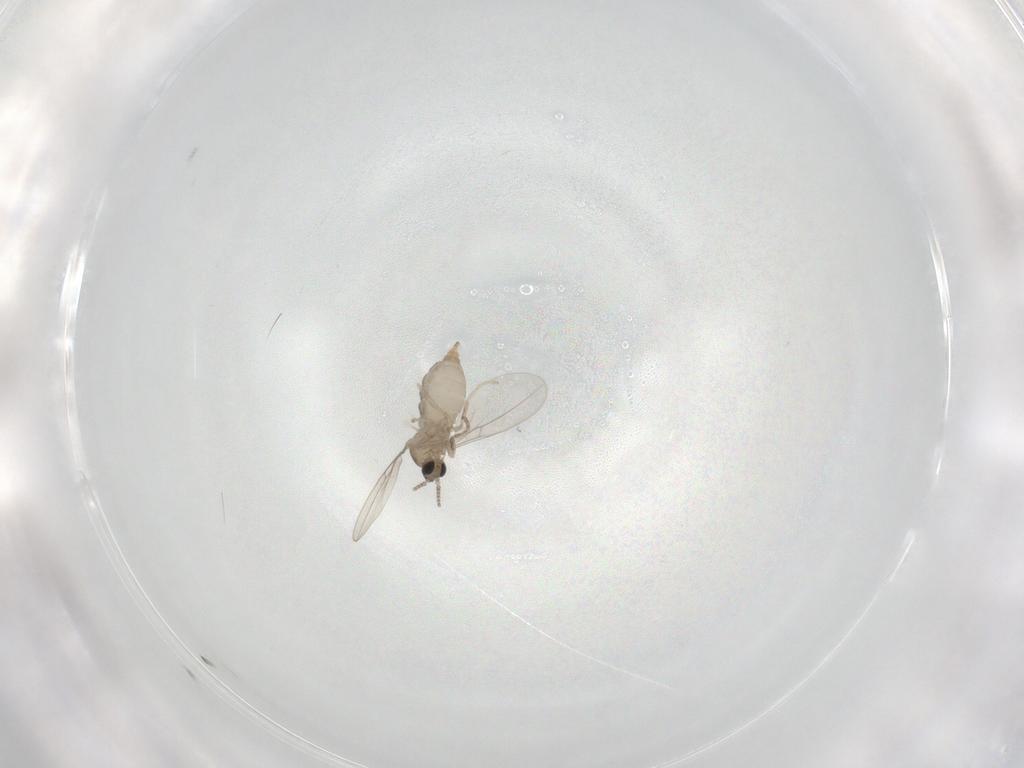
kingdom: Animalia
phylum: Arthropoda
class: Insecta
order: Diptera
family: Cecidomyiidae
